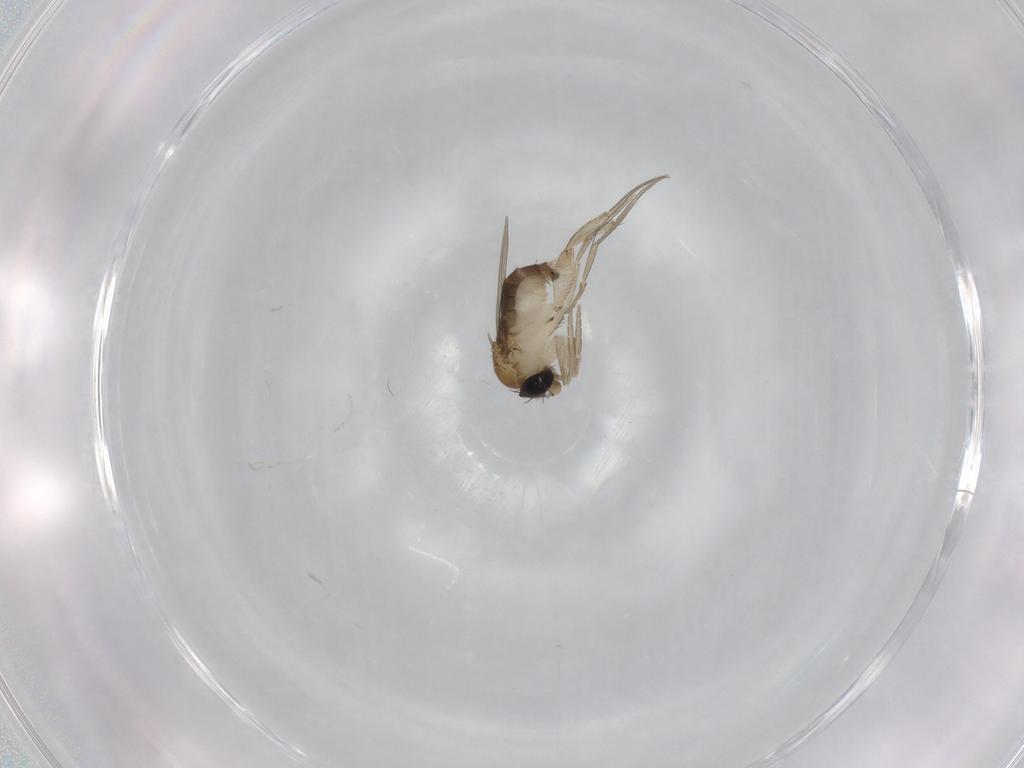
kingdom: Animalia
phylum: Arthropoda
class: Insecta
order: Diptera
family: Phoridae
